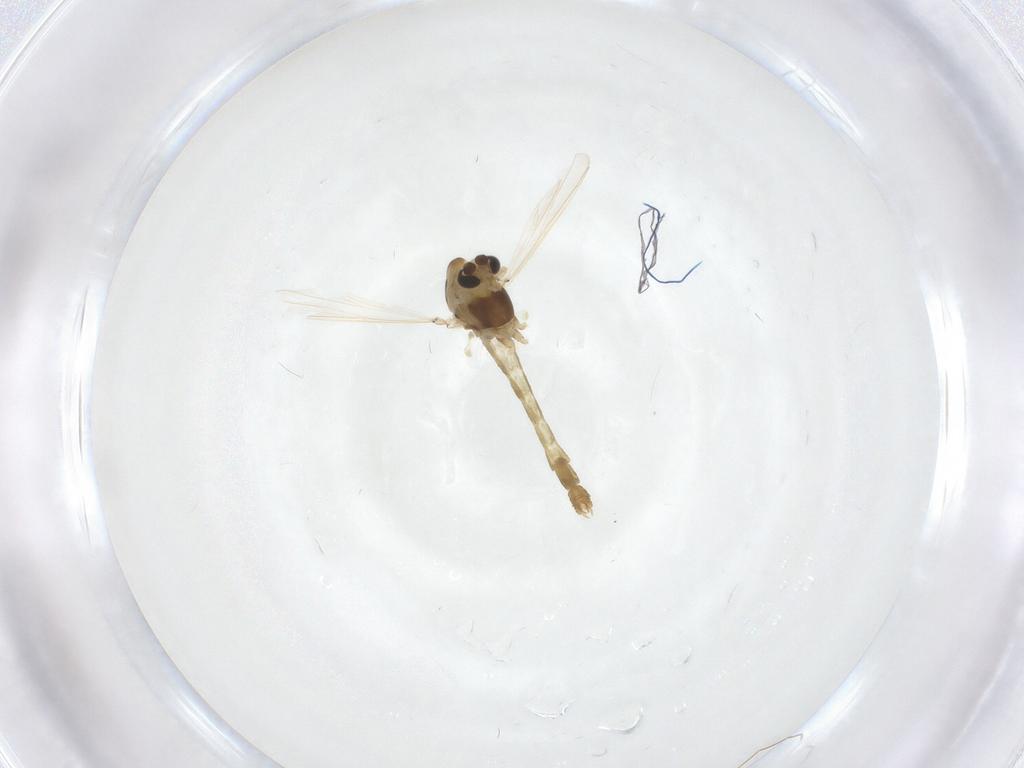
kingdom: Animalia
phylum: Arthropoda
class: Insecta
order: Diptera
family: Chironomidae
